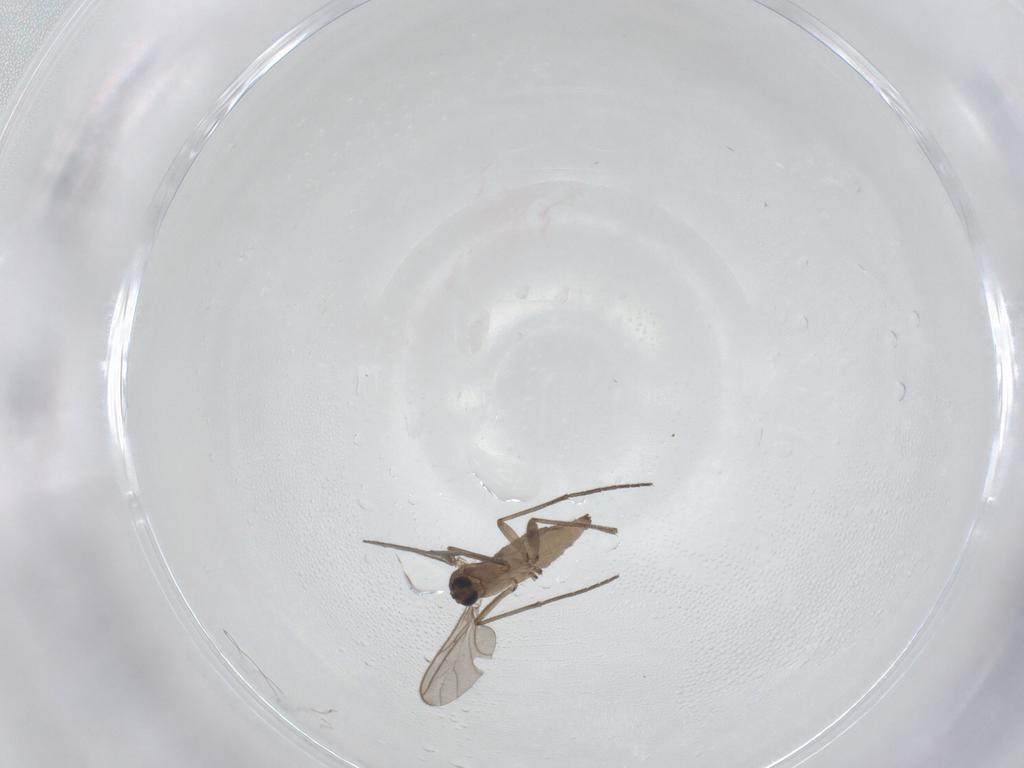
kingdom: Animalia
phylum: Arthropoda
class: Insecta
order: Diptera
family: Sciaridae
